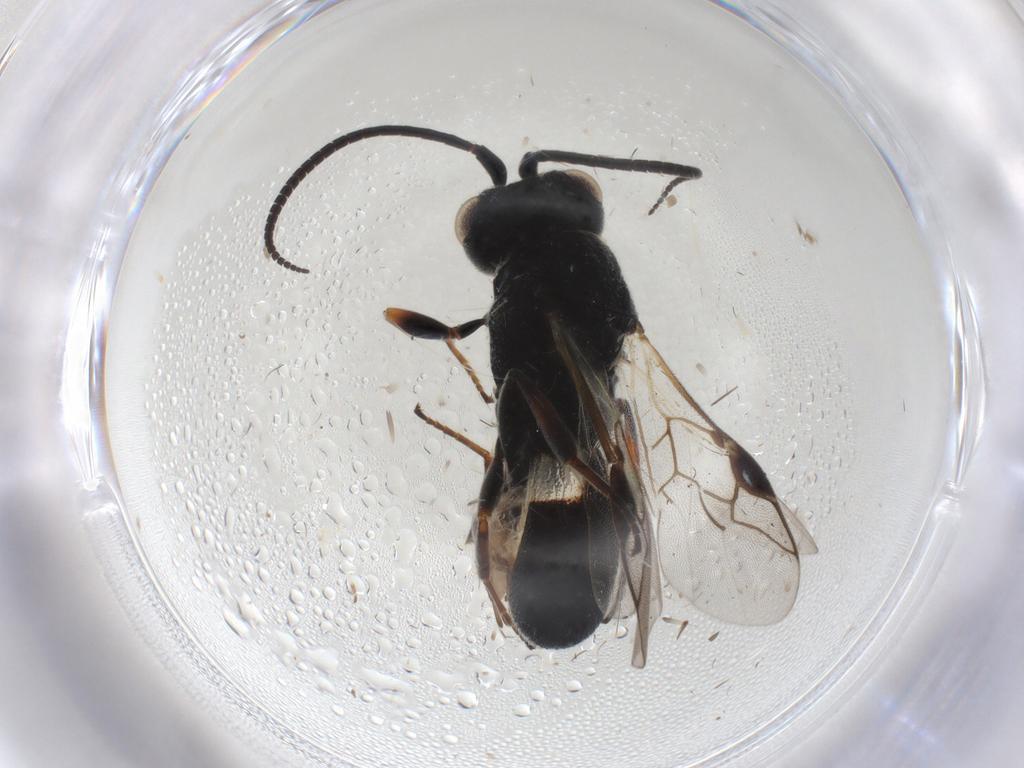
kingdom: Animalia
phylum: Arthropoda
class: Insecta
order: Hymenoptera
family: Braconidae
